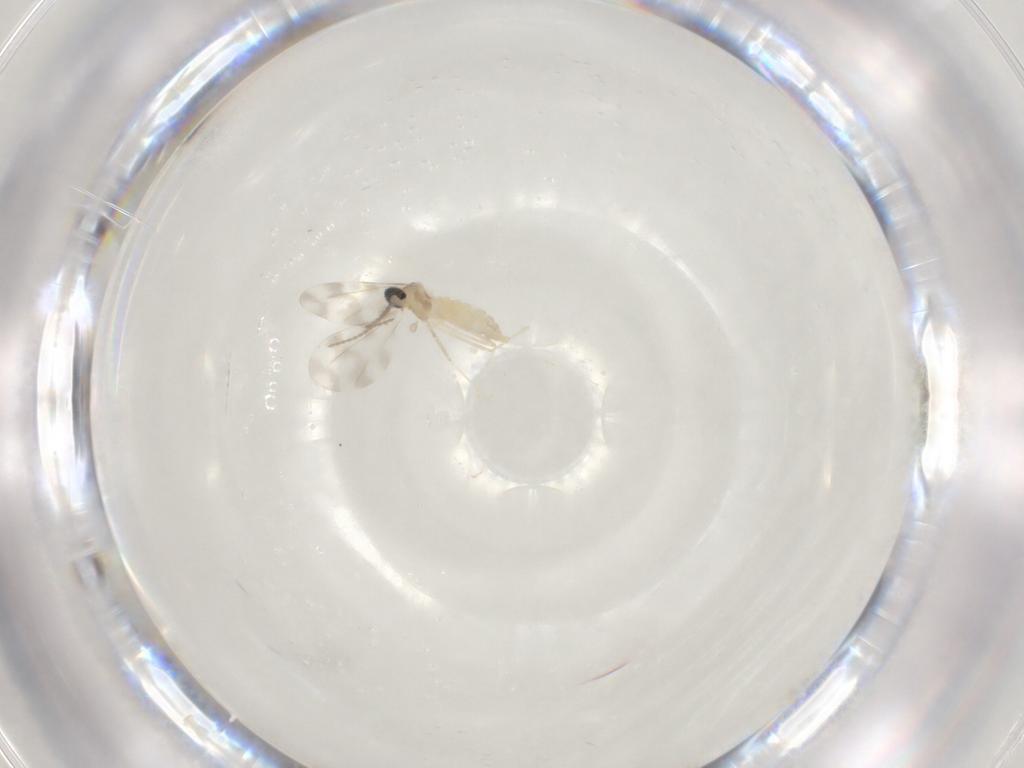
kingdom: Animalia
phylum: Arthropoda
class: Insecta
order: Diptera
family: Cecidomyiidae
